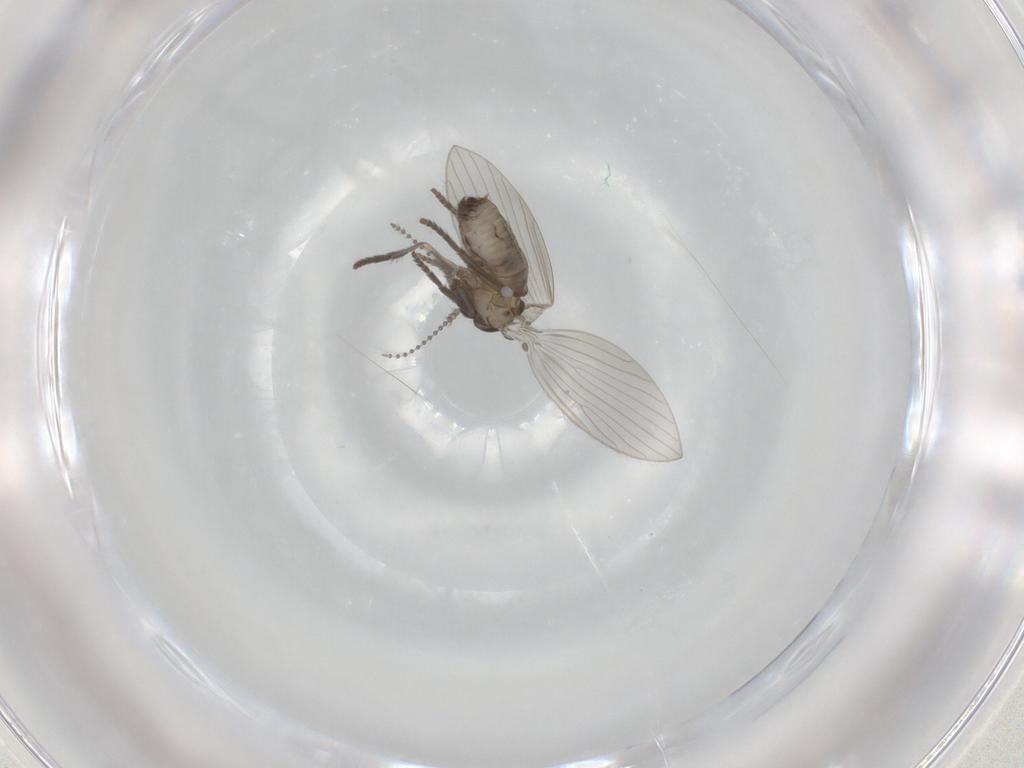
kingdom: Animalia
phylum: Arthropoda
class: Insecta
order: Diptera
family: Psychodidae
